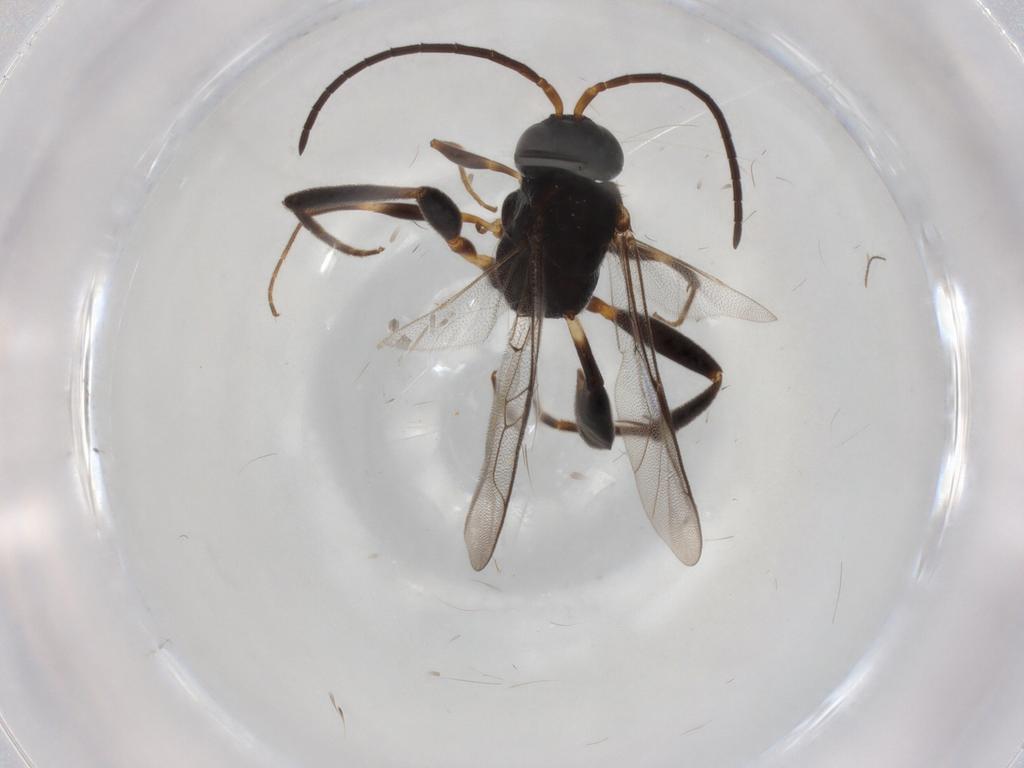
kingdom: Animalia
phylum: Arthropoda
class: Insecta
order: Hymenoptera
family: Evaniidae
